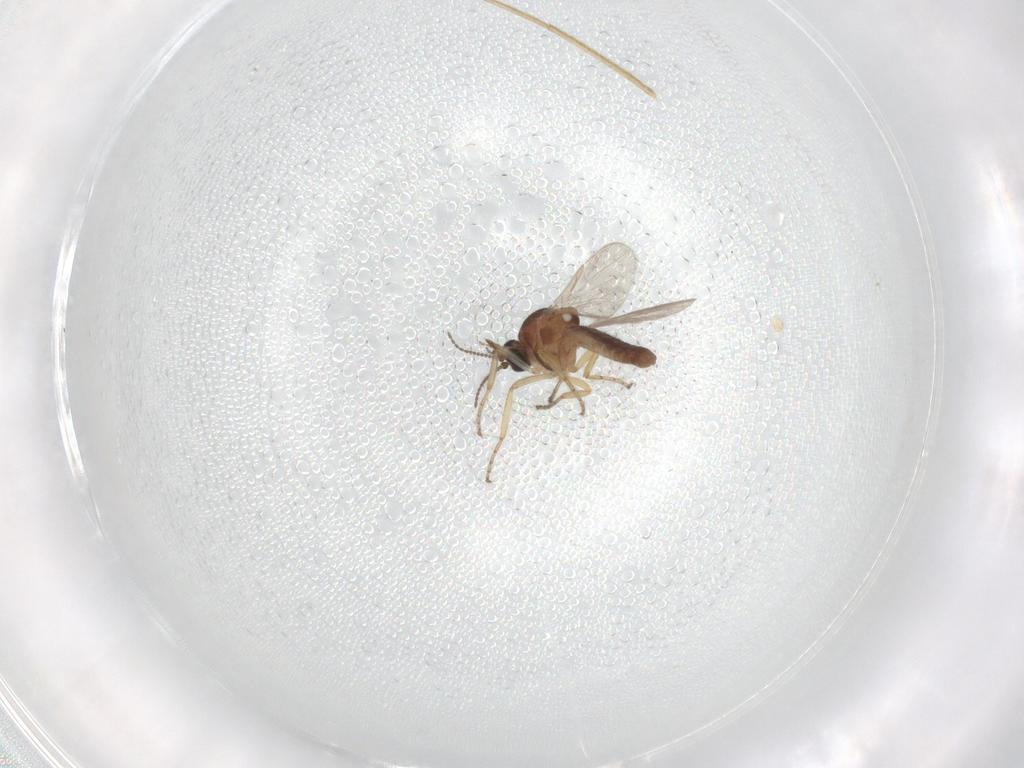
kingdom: Animalia
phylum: Arthropoda
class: Insecta
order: Diptera
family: Ceratopogonidae
